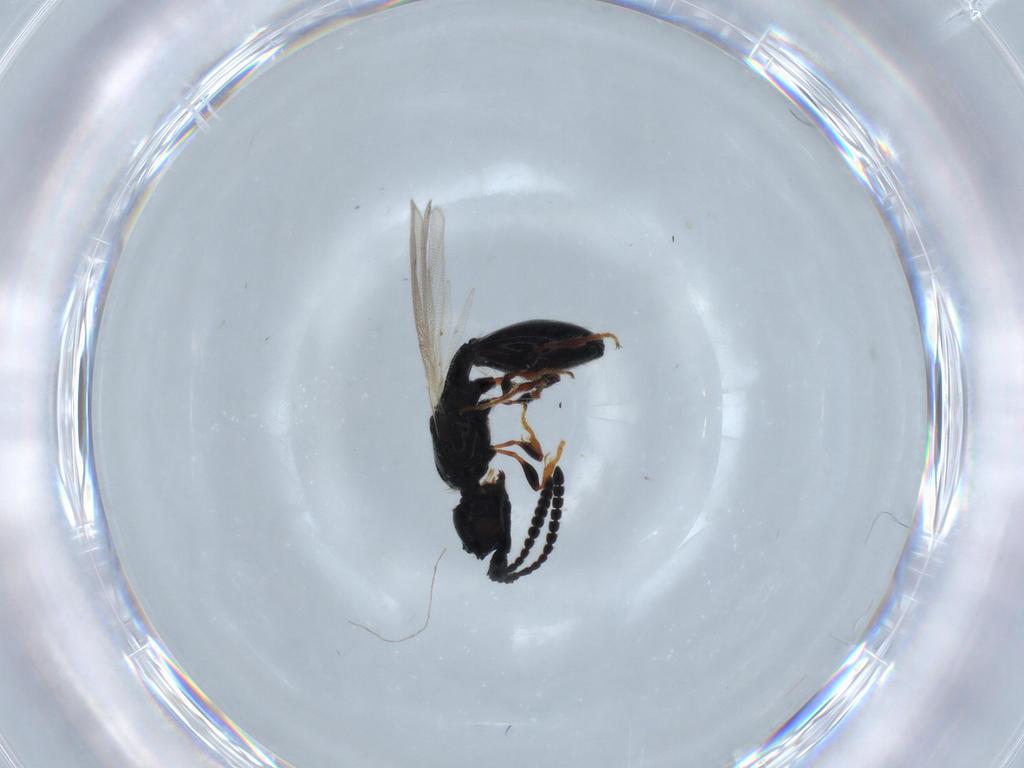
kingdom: Animalia
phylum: Arthropoda
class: Insecta
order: Hymenoptera
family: Diapriidae
